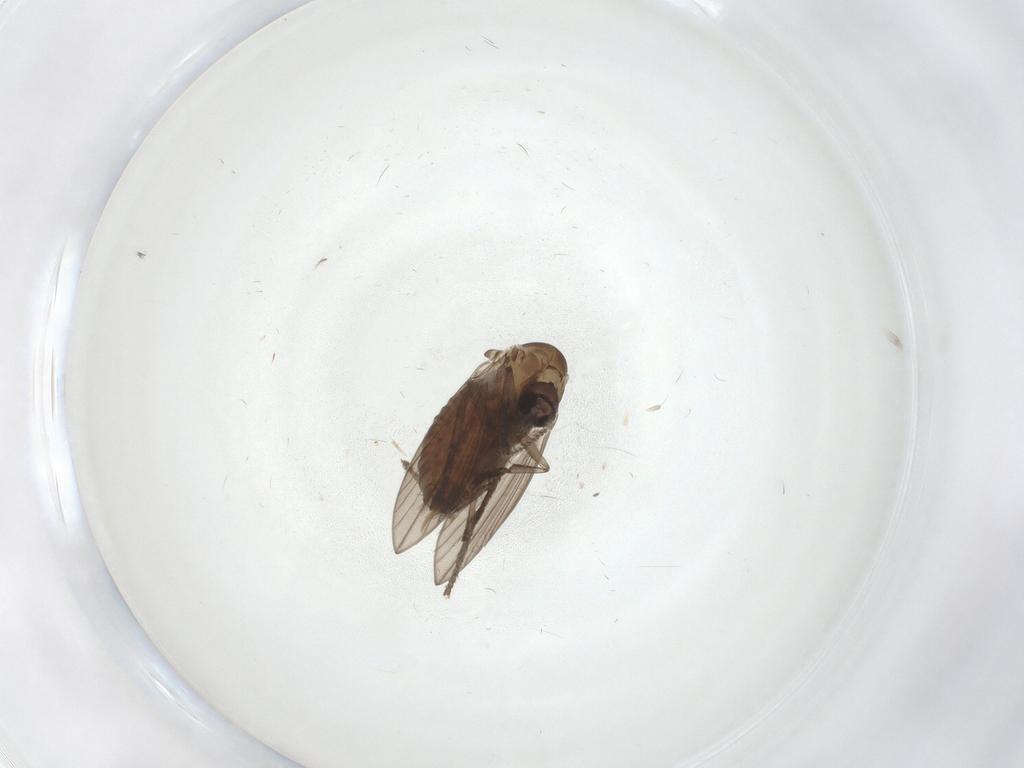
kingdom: Animalia
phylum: Arthropoda
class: Insecta
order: Diptera
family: Psychodidae
